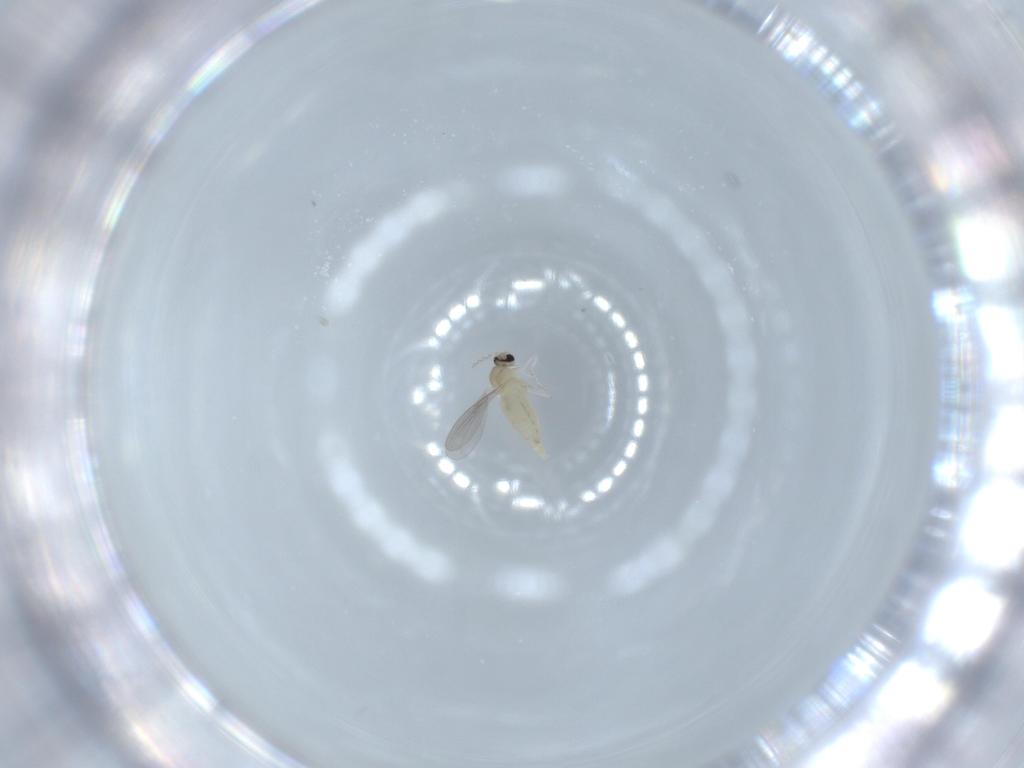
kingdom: Animalia
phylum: Arthropoda
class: Insecta
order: Diptera
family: Cecidomyiidae
